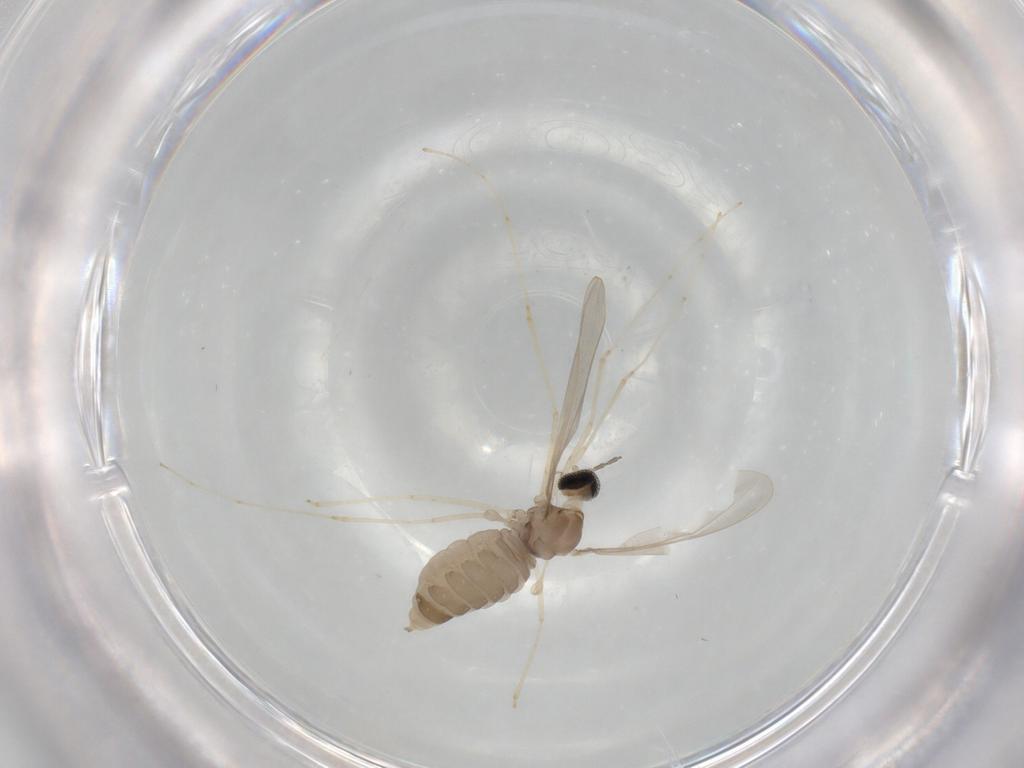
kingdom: Animalia
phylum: Arthropoda
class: Insecta
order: Diptera
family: Cecidomyiidae
